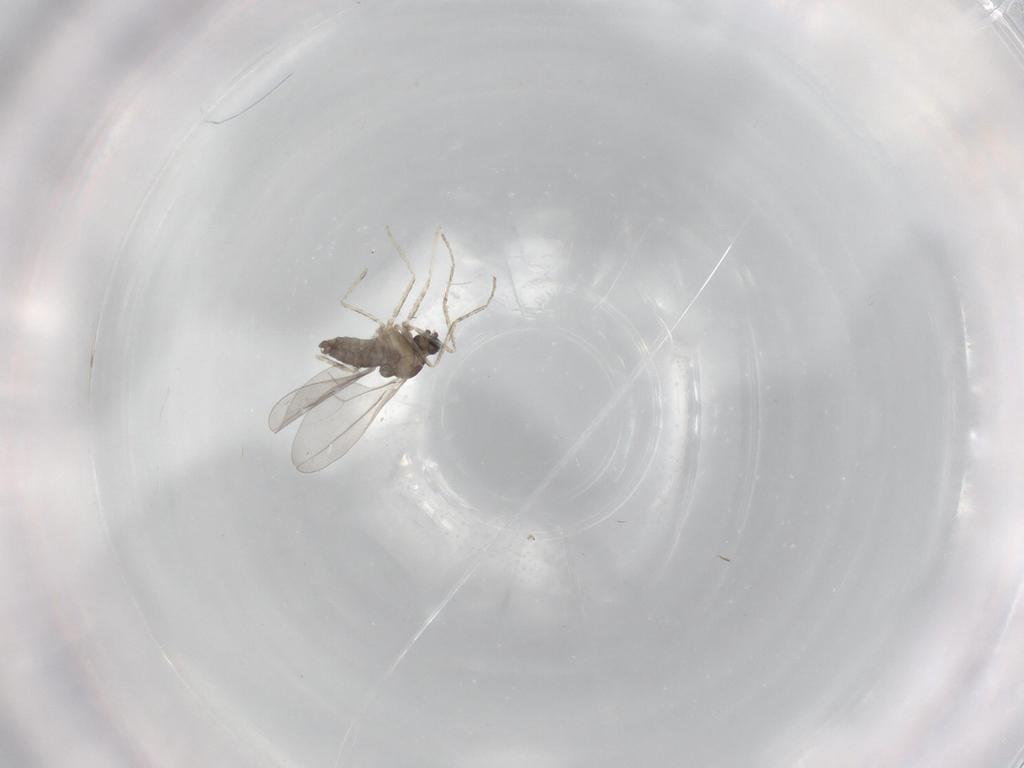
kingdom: Animalia
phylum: Arthropoda
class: Insecta
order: Diptera
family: Cecidomyiidae
